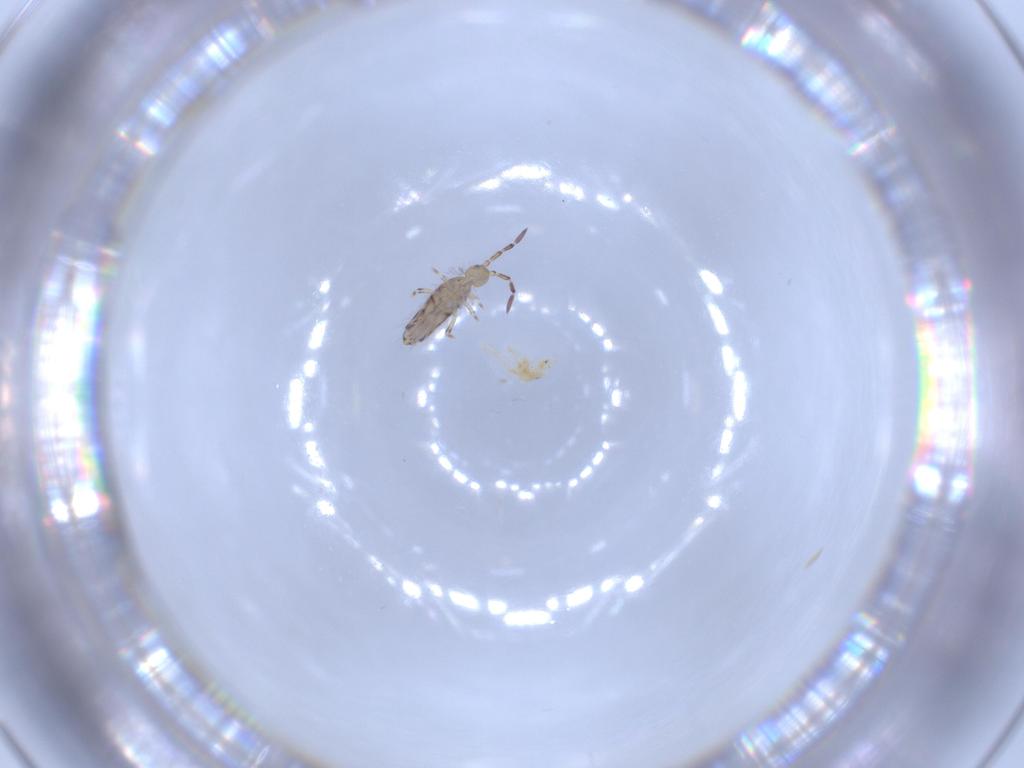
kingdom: Animalia
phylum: Arthropoda
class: Collembola
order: Entomobryomorpha
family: Entomobryidae
